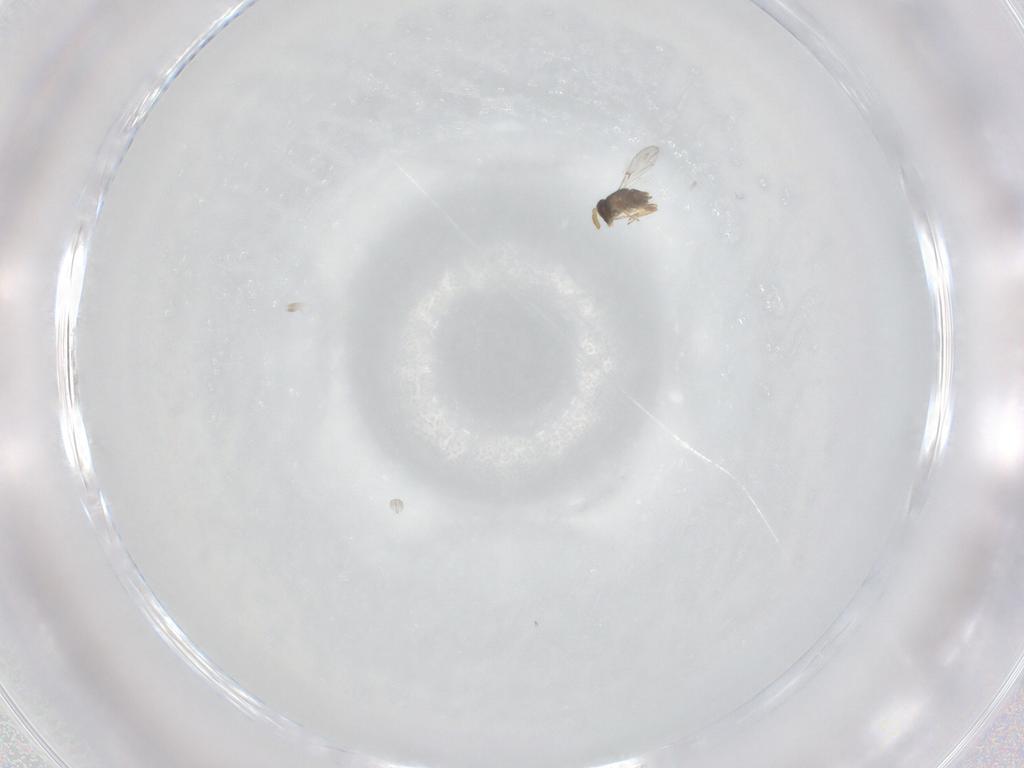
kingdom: Animalia
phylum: Arthropoda
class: Insecta
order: Hymenoptera
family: Encyrtidae
